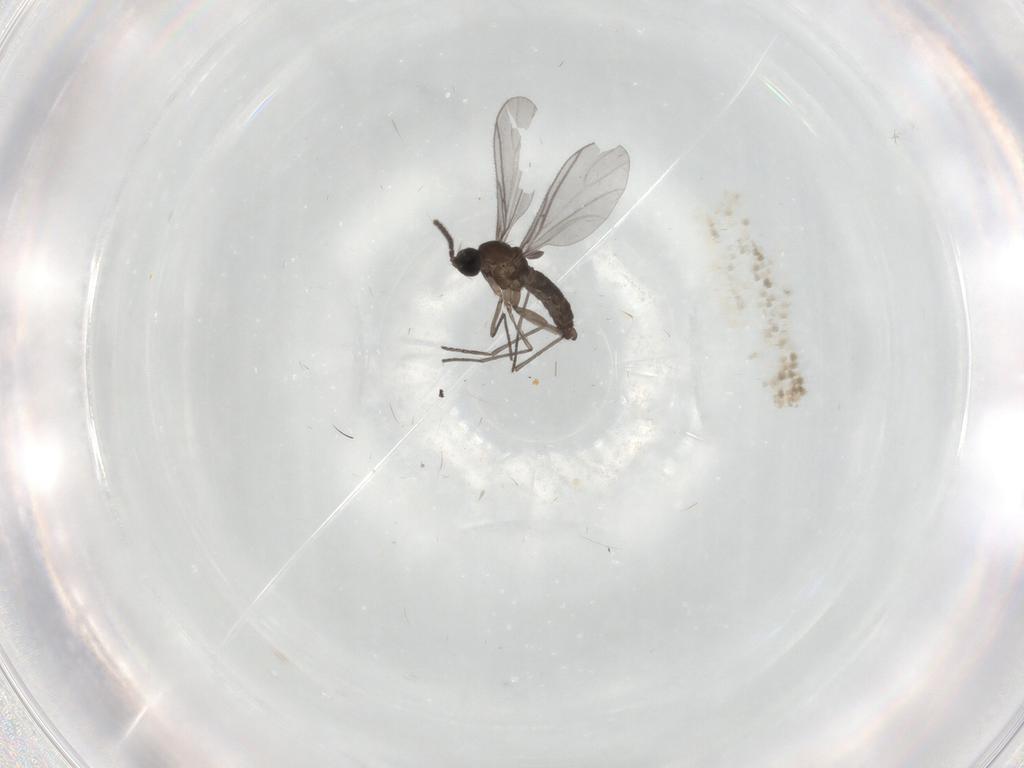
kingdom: Animalia
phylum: Arthropoda
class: Insecta
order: Diptera
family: Sciaridae
